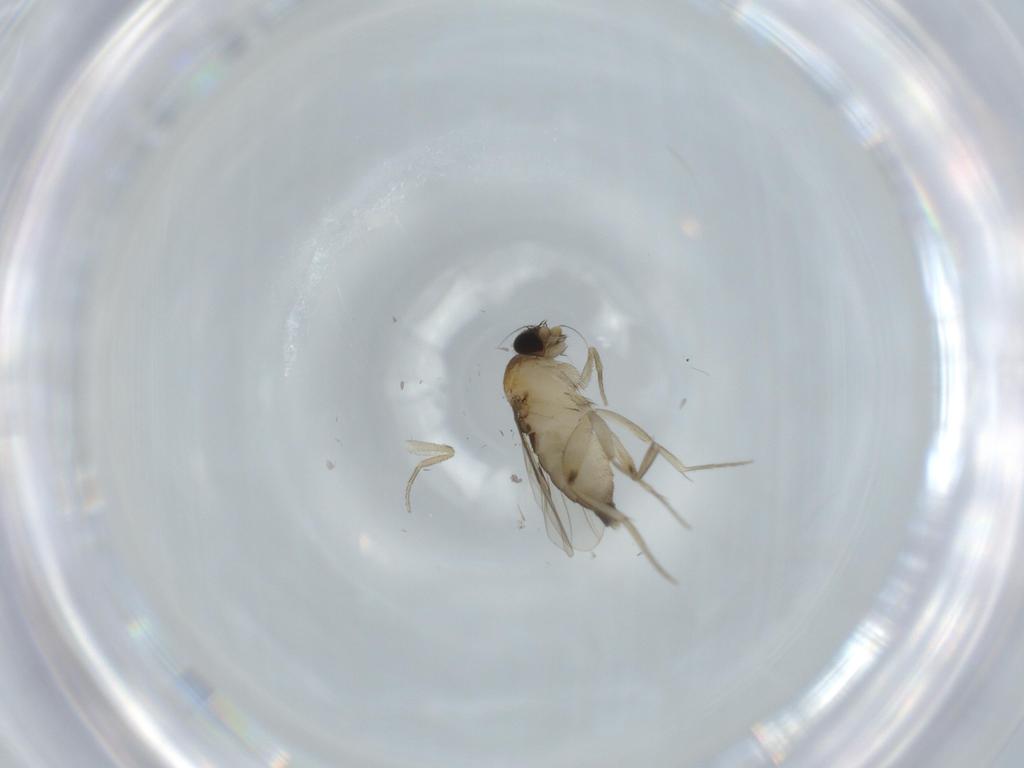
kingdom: Animalia
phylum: Arthropoda
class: Insecta
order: Diptera
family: Phoridae
